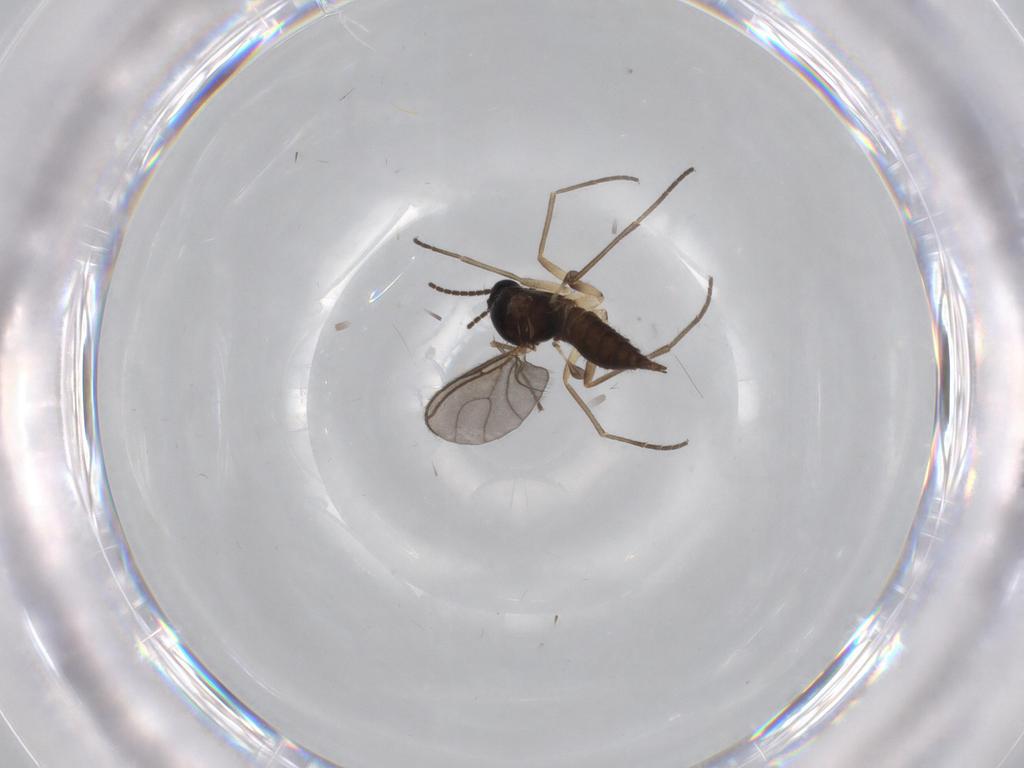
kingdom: Animalia
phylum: Arthropoda
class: Insecta
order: Diptera
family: Sciaridae
